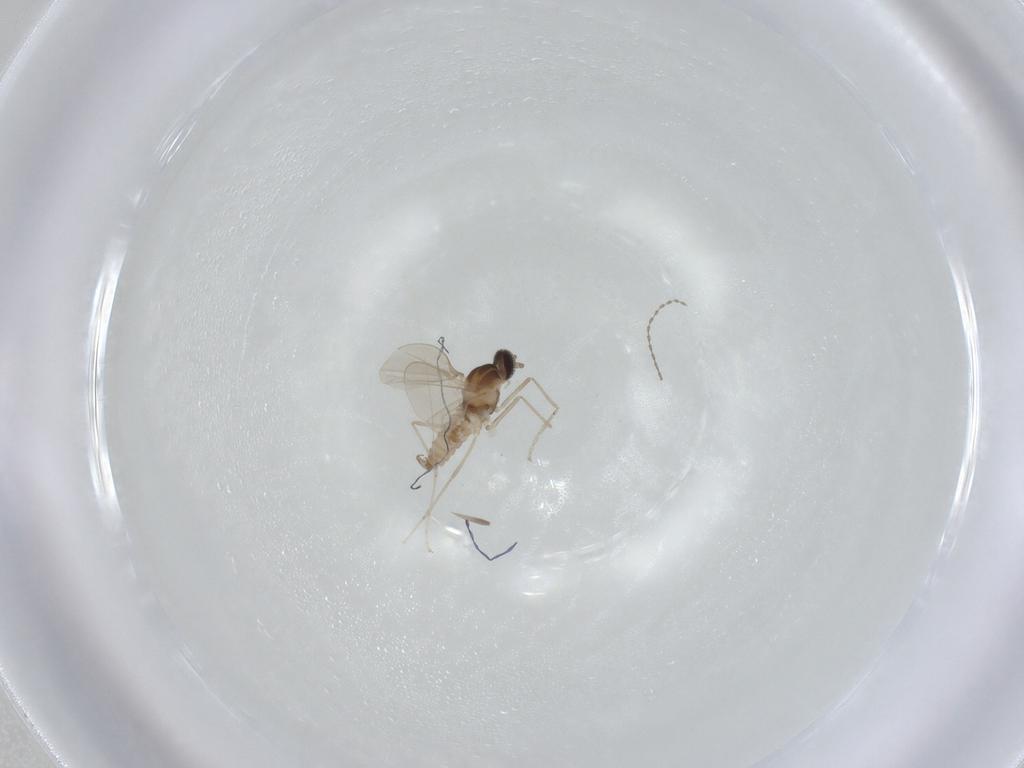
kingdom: Animalia
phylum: Arthropoda
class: Insecta
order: Diptera
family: Cecidomyiidae
